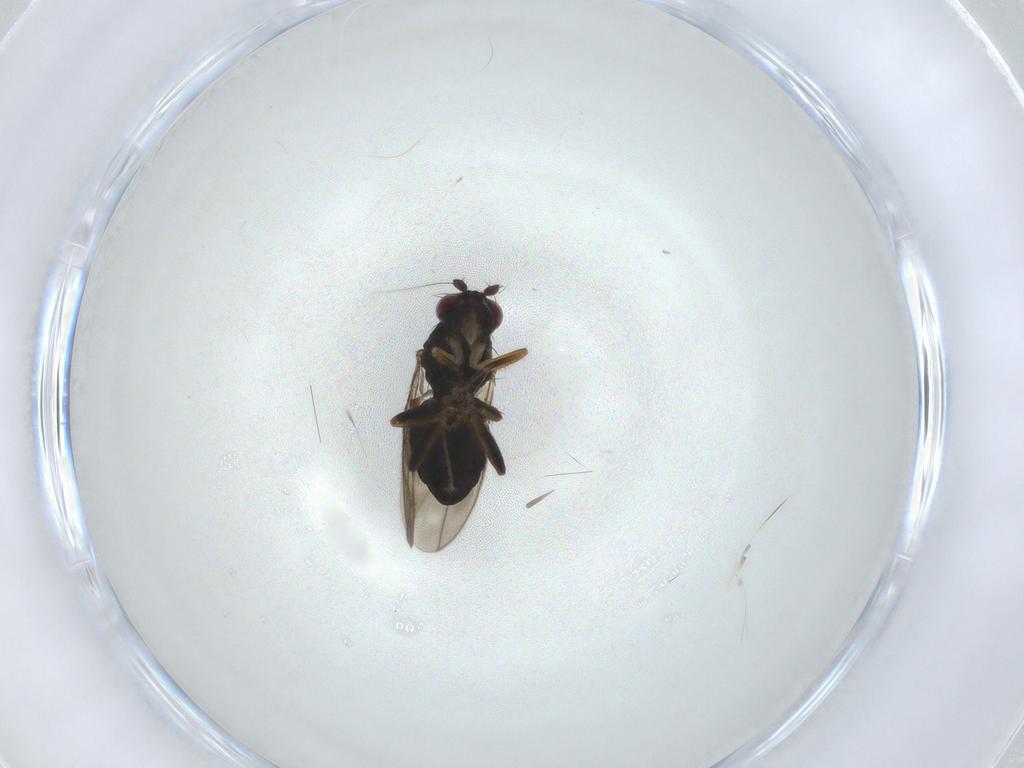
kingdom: Animalia
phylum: Arthropoda
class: Insecta
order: Diptera
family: Sphaeroceridae
